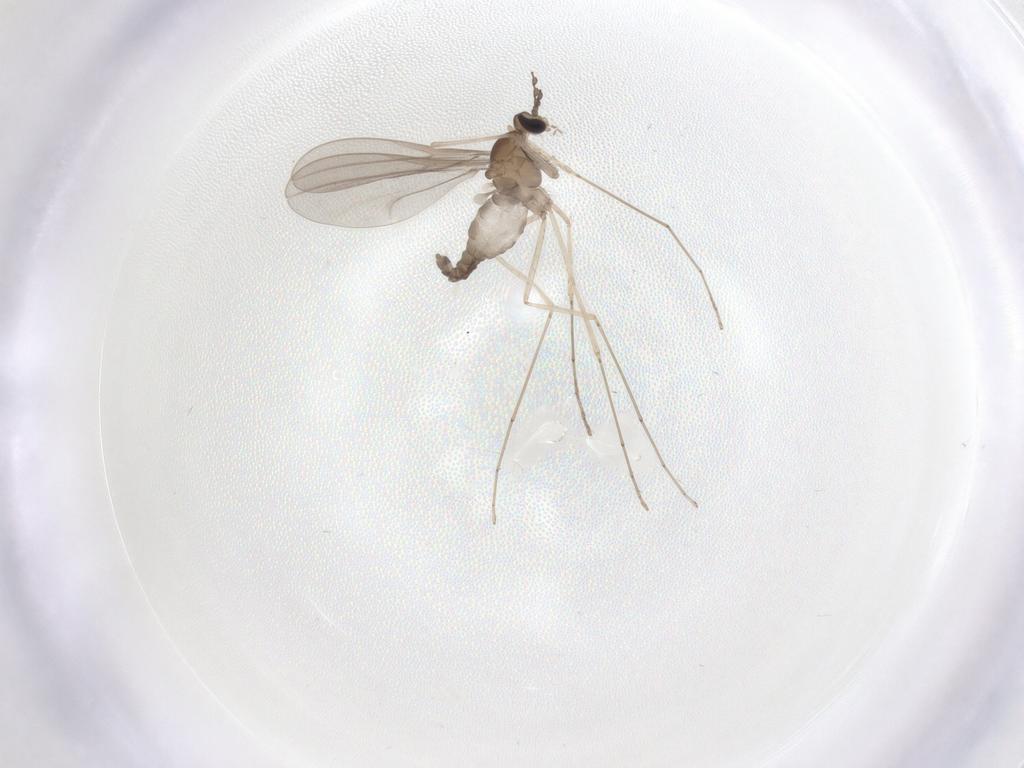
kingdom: Animalia
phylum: Arthropoda
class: Insecta
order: Diptera
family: Cecidomyiidae
